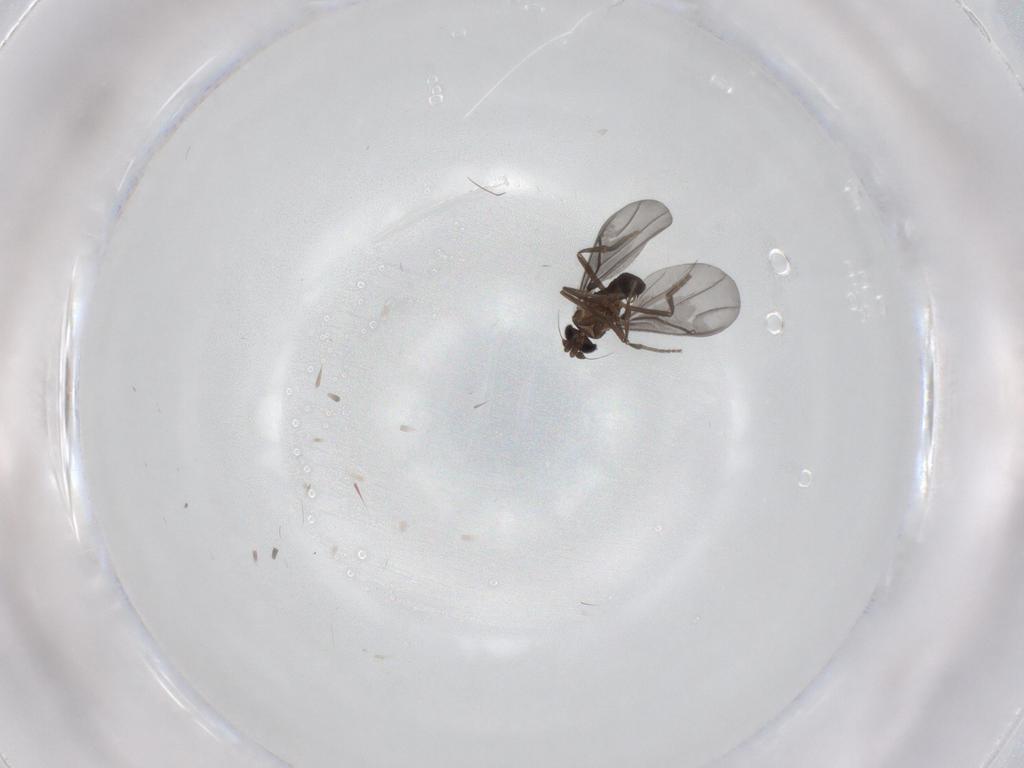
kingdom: Animalia
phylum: Arthropoda
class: Insecta
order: Diptera
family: Phoridae
